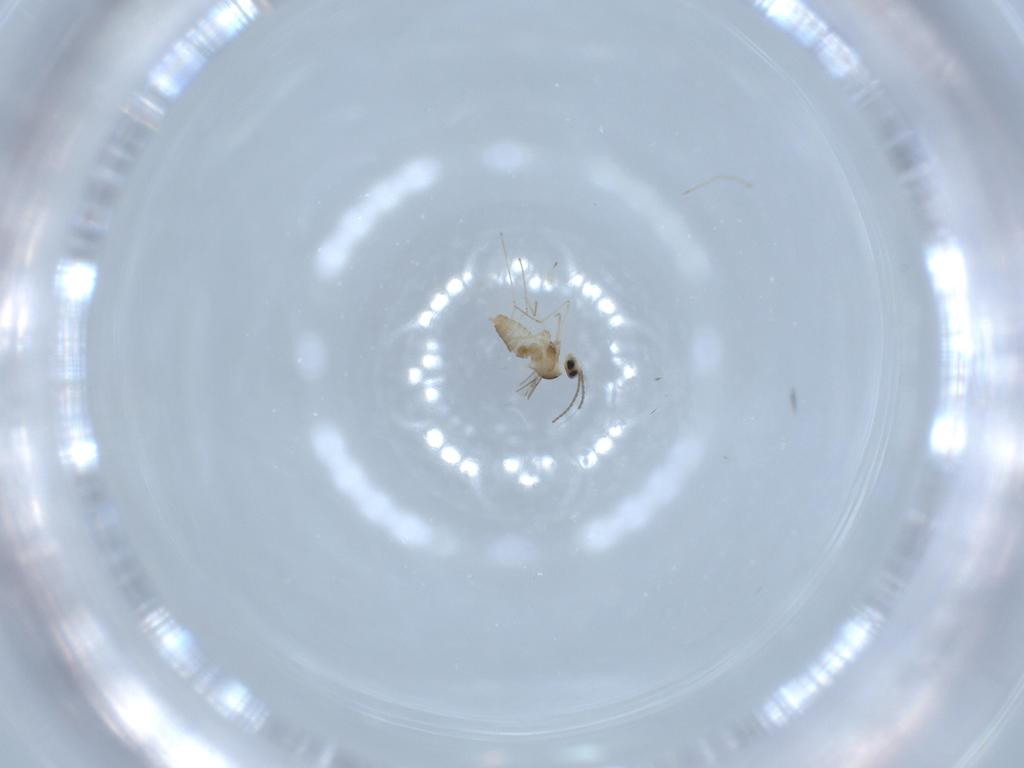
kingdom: Animalia
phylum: Arthropoda
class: Insecta
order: Diptera
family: Cecidomyiidae
